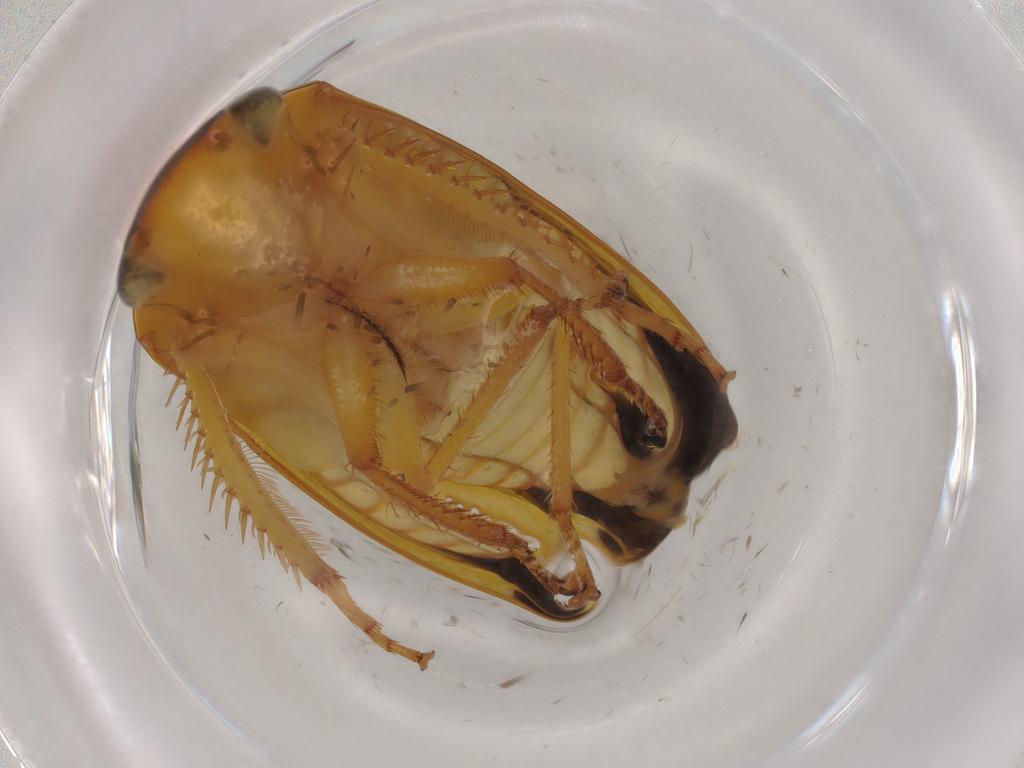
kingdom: Animalia
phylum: Arthropoda
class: Insecta
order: Hemiptera
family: Cicadellidae
